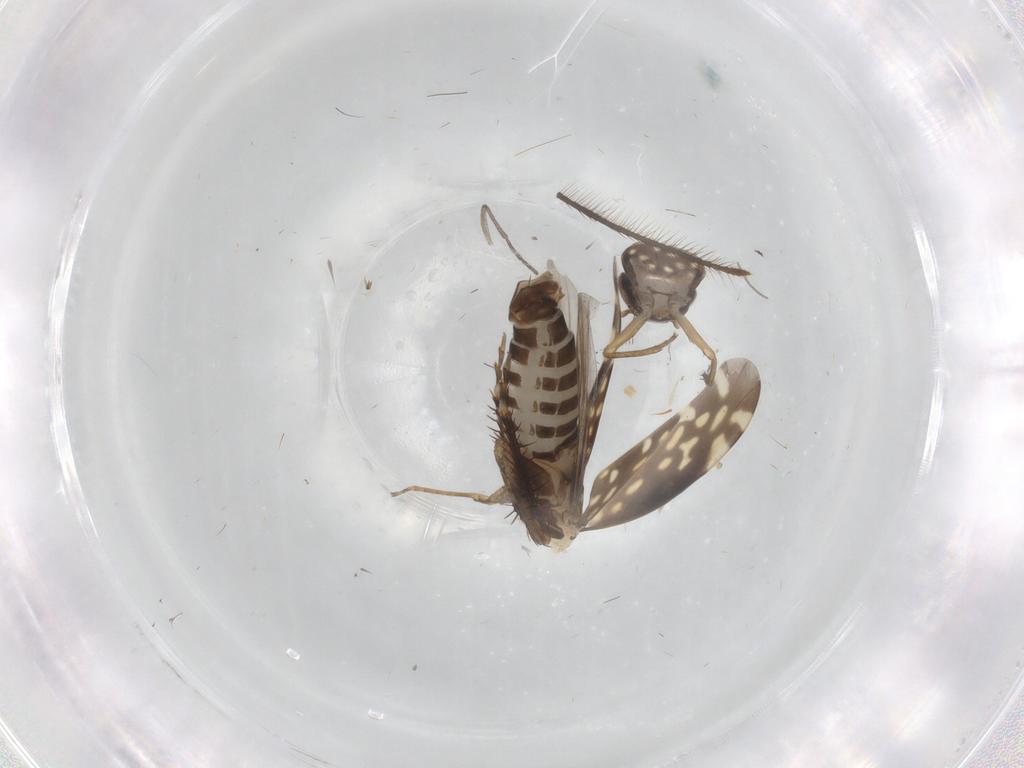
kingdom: Animalia
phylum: Arthropoda
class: Insecta
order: Hemiptera
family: Cicadellidae
